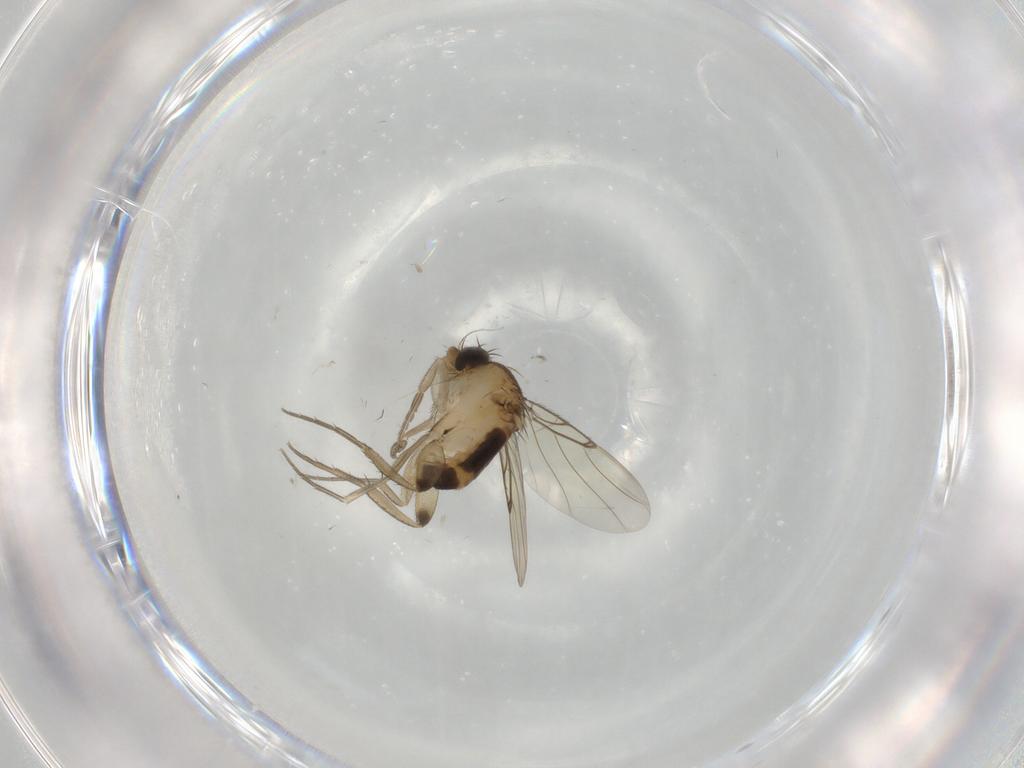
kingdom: Animalia
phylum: Arthropoda
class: Insecta
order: Diptera
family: Phoridae
